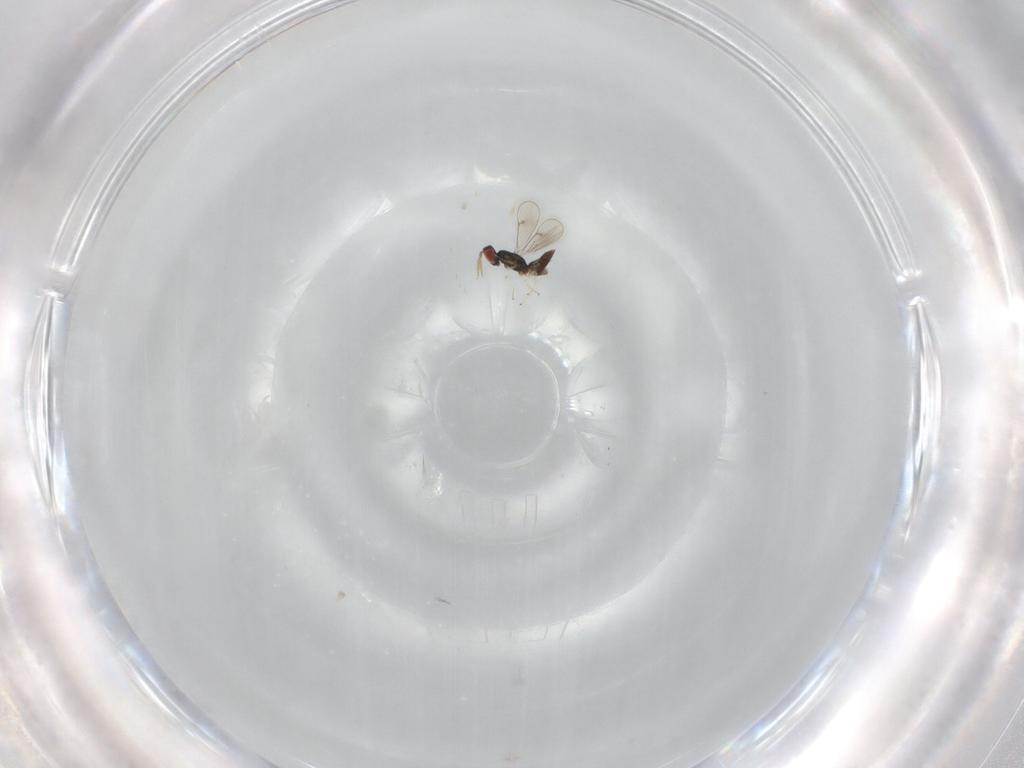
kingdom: Animalia
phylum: Arthropoda
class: Insecta
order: Hymenoptera
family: Eulophidae
